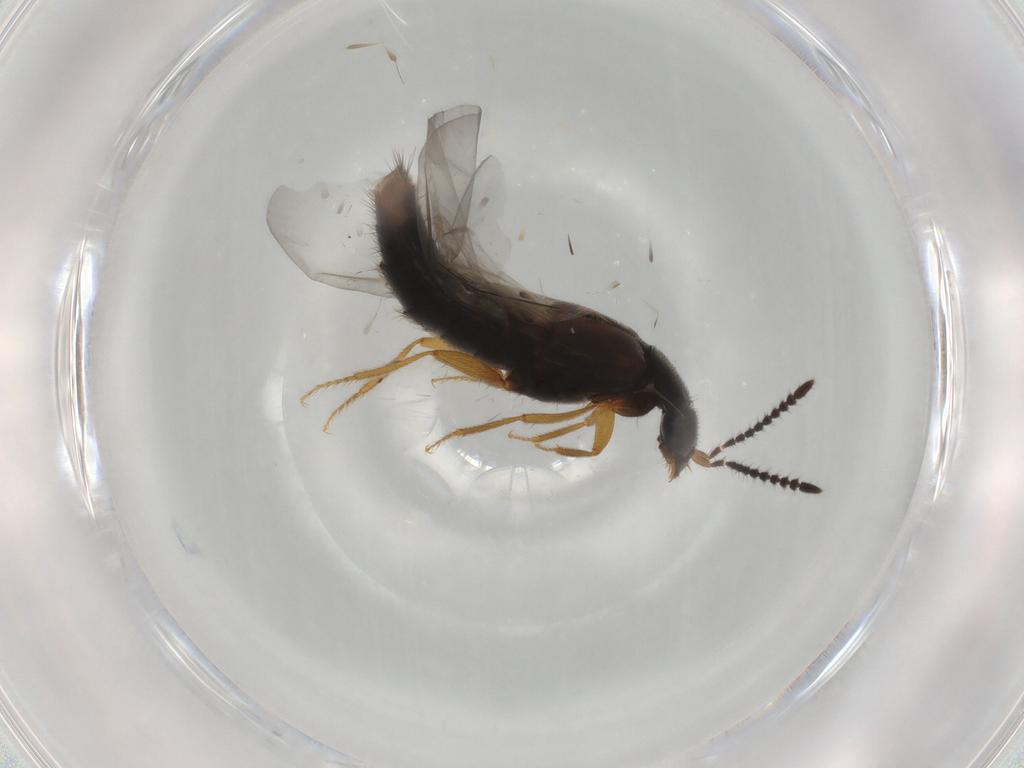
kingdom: Animalia
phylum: Arthropoda
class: Insecta
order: Coleoptera
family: Staphylinidae
